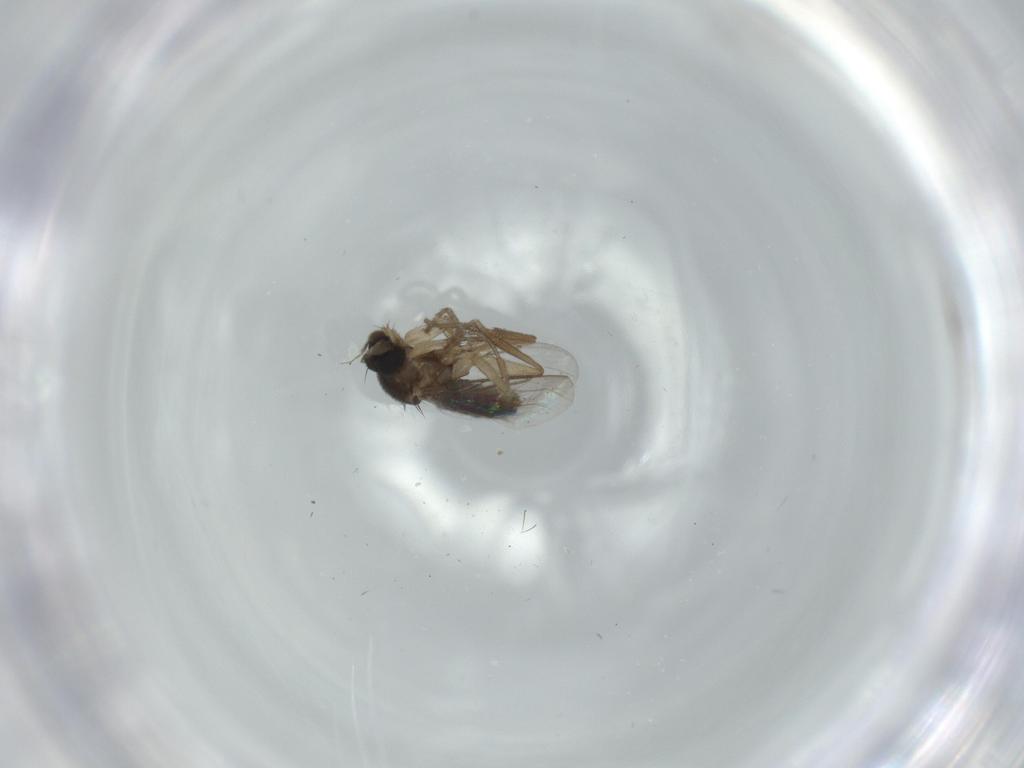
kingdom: Animalia
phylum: Arthropoda
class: Insecta
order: Diptera
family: Phoridae
